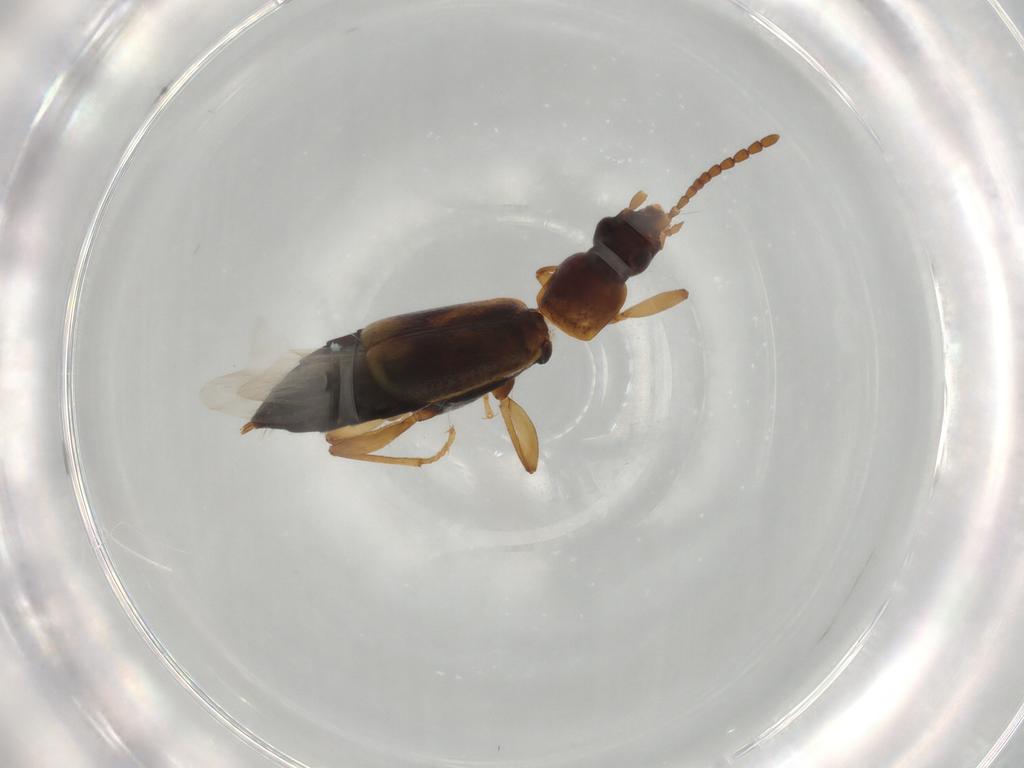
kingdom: Animalia
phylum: Arthropoda
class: Insecta
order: Coleoptera
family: Staphylinidae
